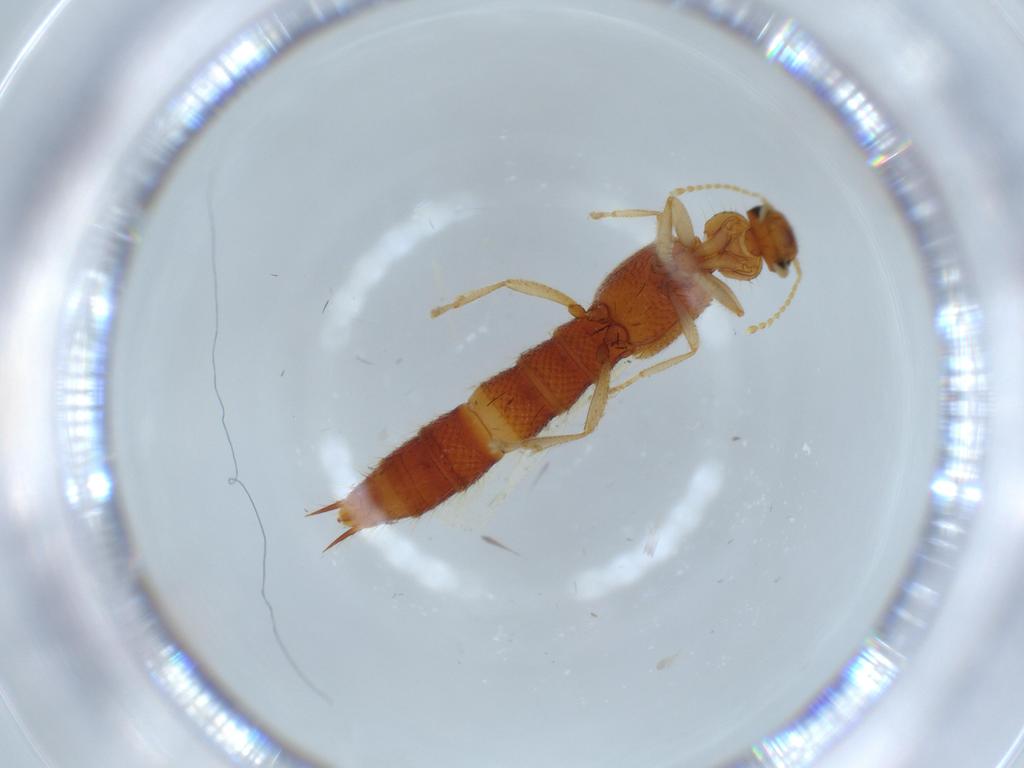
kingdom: Animalia
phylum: Arthropoda
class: Insecta
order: Coleoptera
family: Staphylinidae
